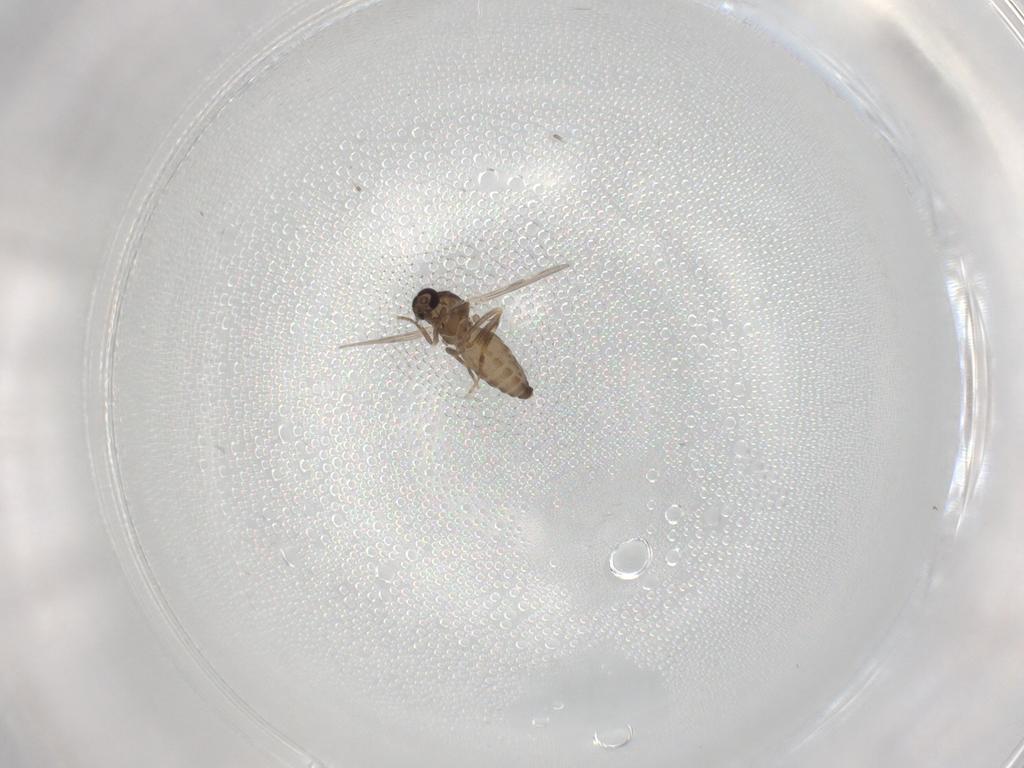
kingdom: Animalia
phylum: Arthropoda
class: Insecta
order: Diptera
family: Ceratopogonidae
